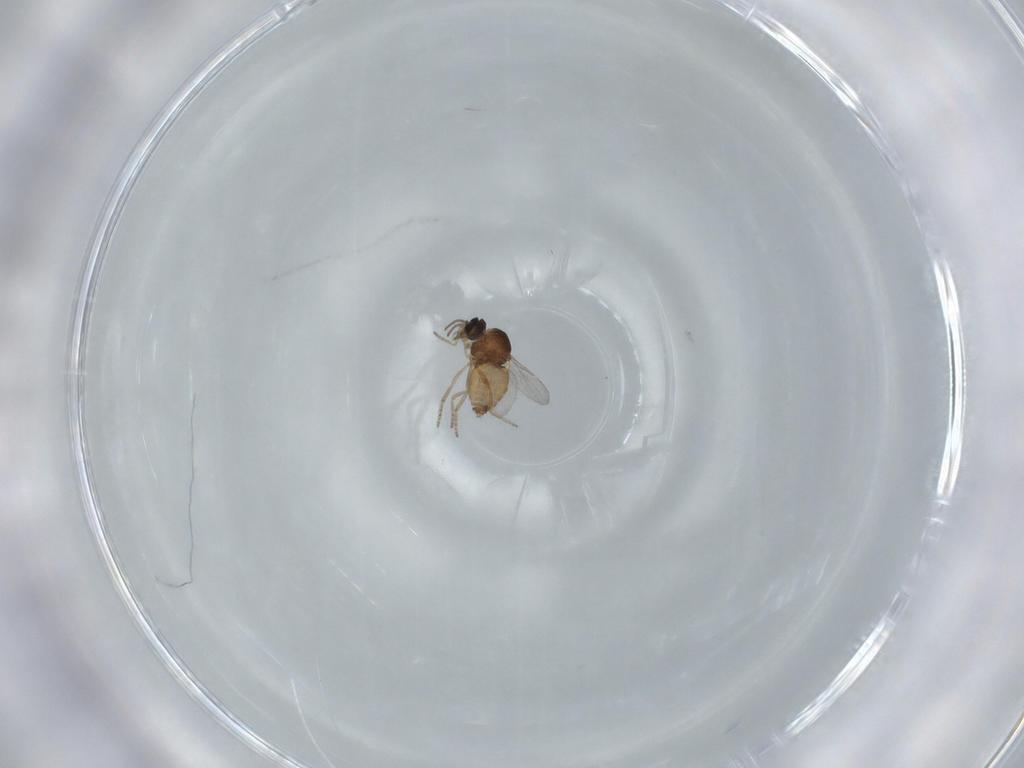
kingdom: Animalia
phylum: Arthropoda
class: Insecta
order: Diptera
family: Ceratopogonidae
